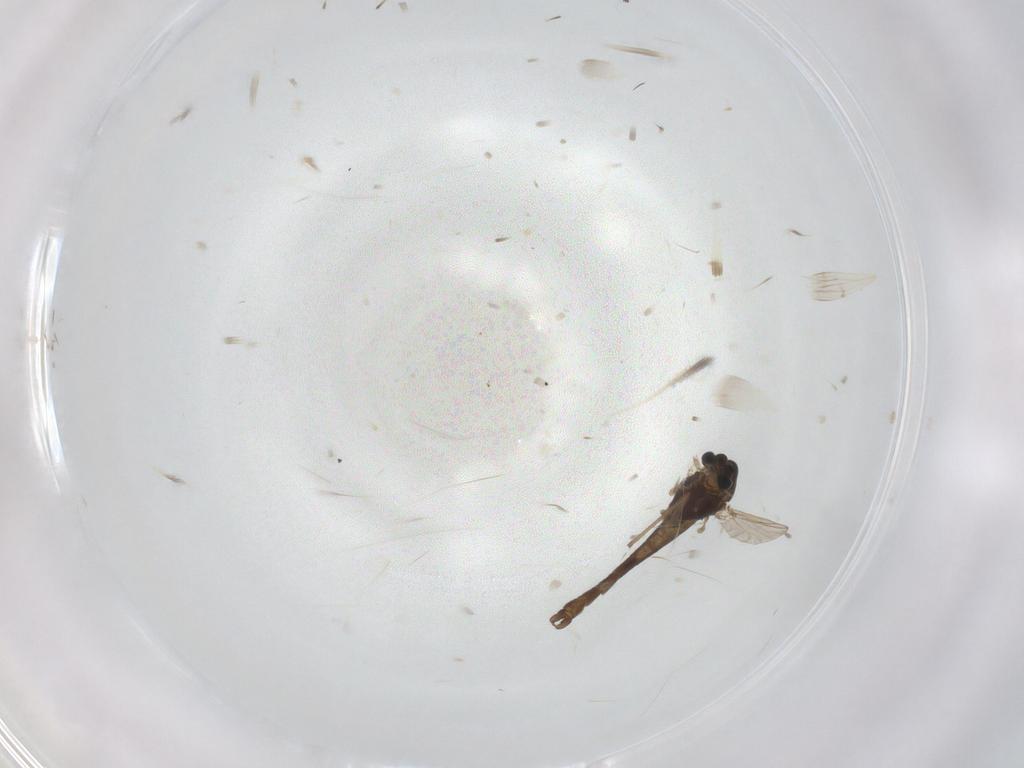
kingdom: Animalia
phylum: Arthropoda
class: Insecta
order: Diptera
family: Chironomidae
